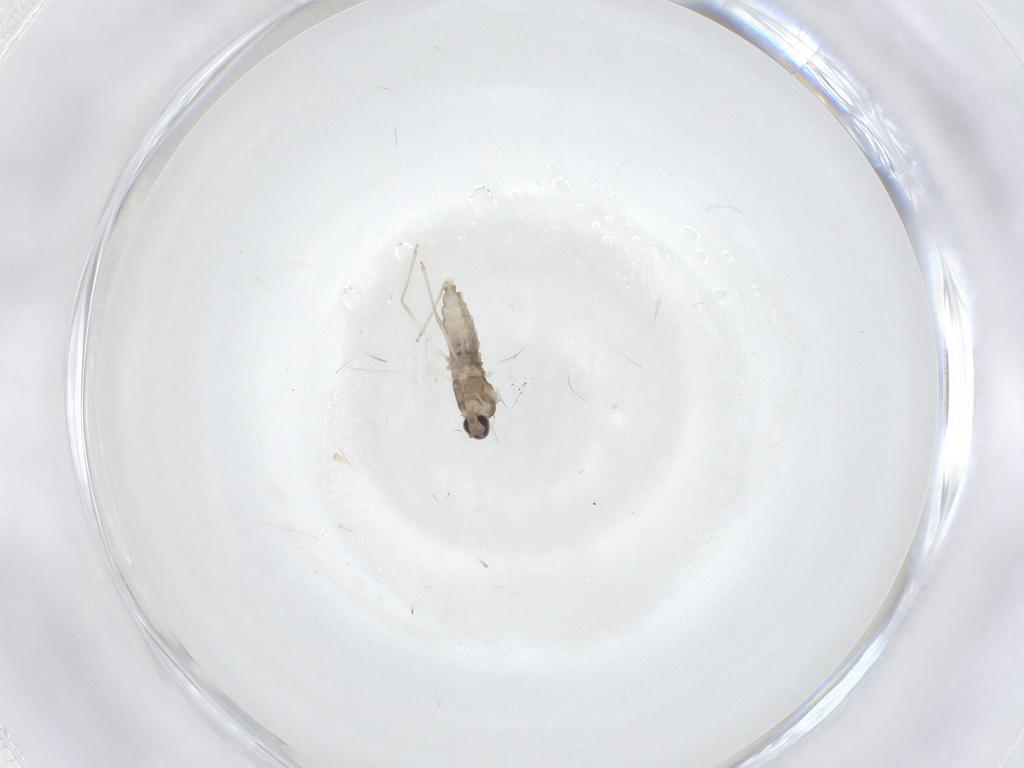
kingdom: Animalia
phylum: Arthropoda
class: Insecta
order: Diptera
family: Cecidomyiidae
